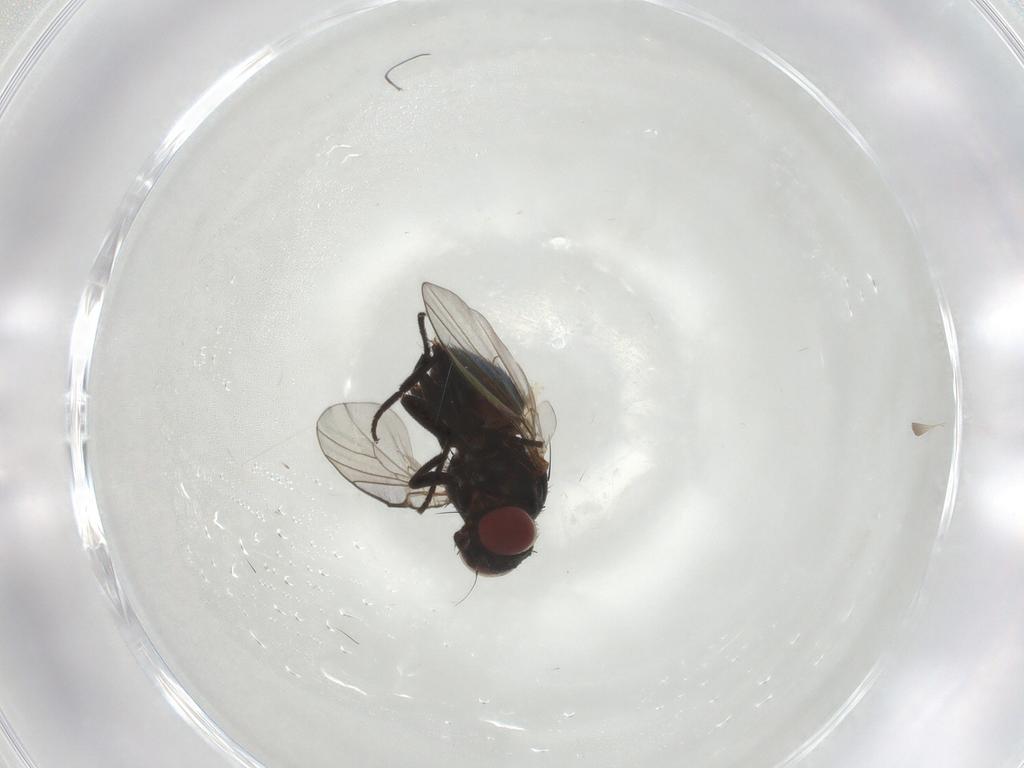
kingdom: Animalia
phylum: Arthropoda
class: Insecta
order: Diptera
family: Agromyzidae
